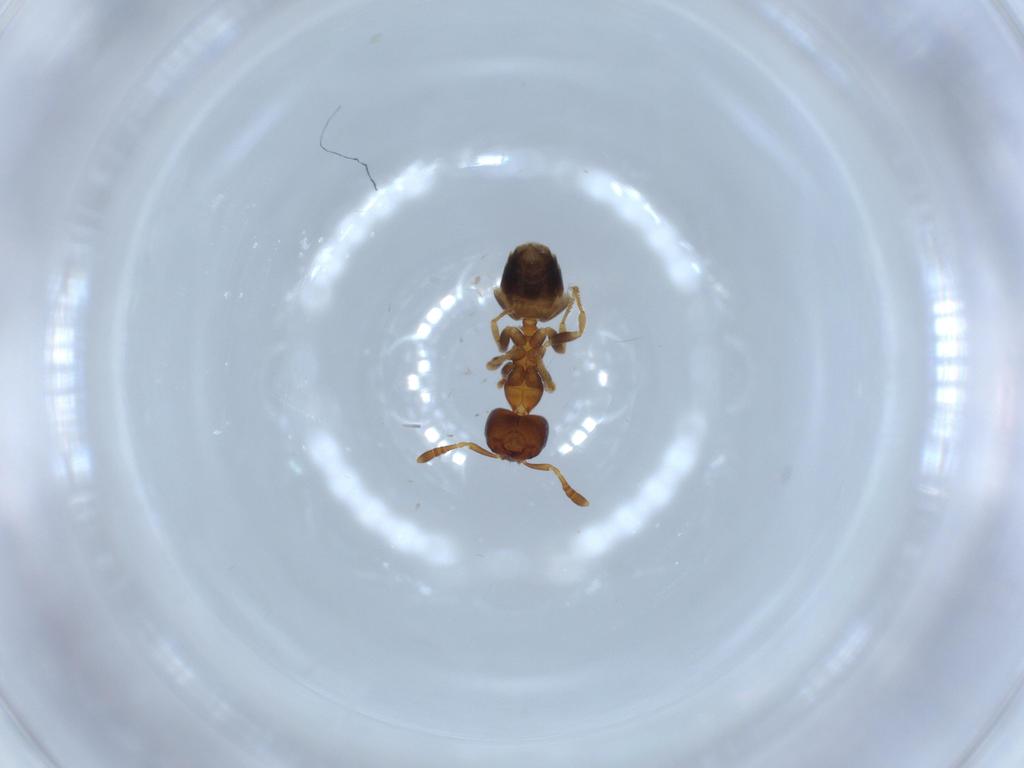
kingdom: Animalia
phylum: Arthropoda
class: Insecta
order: Hymenoptera
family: Formicidae
